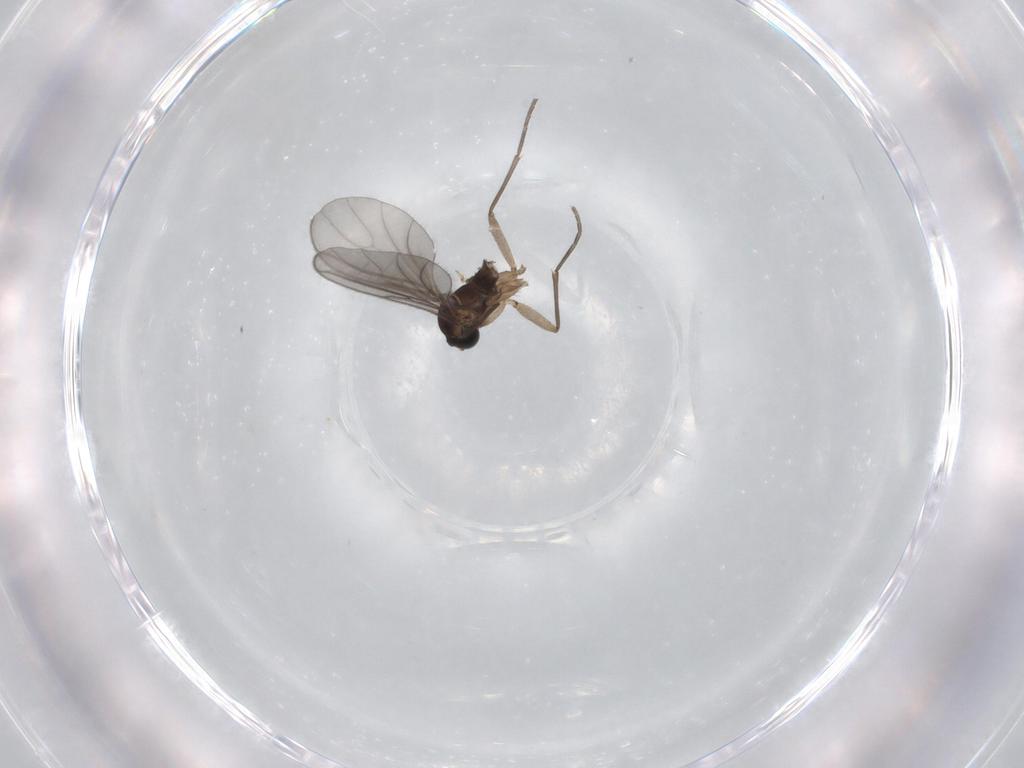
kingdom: Animalia
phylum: Arthropoda
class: Insecta
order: Diptera
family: Sciaridae
